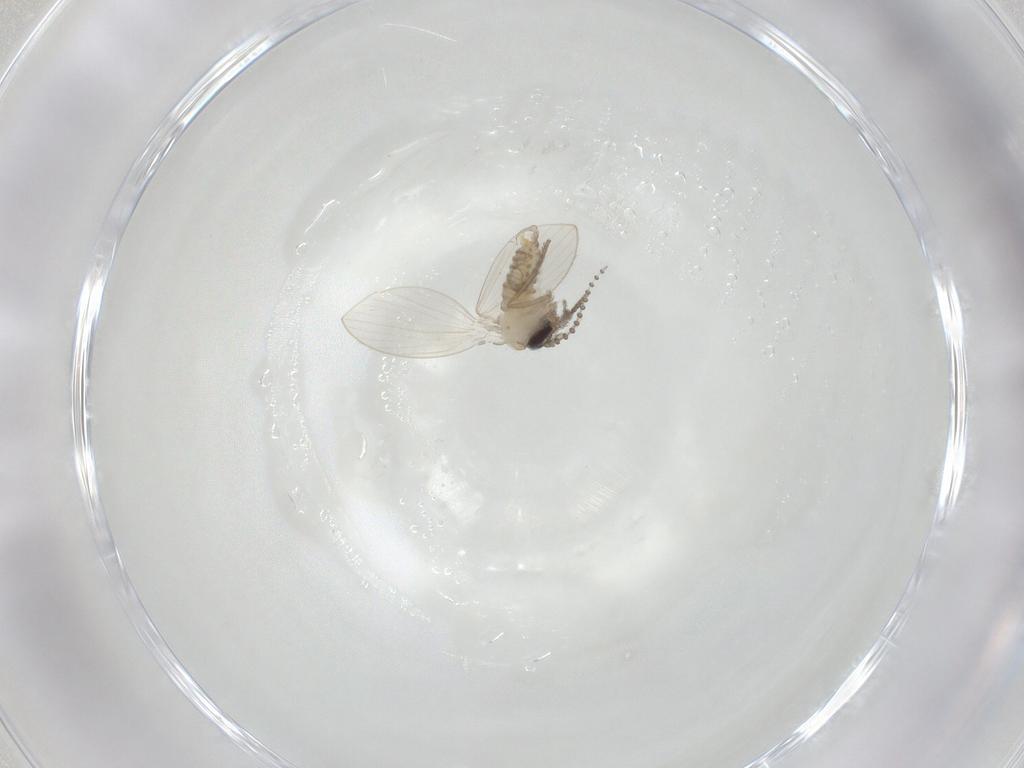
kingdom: Animalia
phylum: Arthropoda
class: Insecta
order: Diptera
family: Psychodidae
